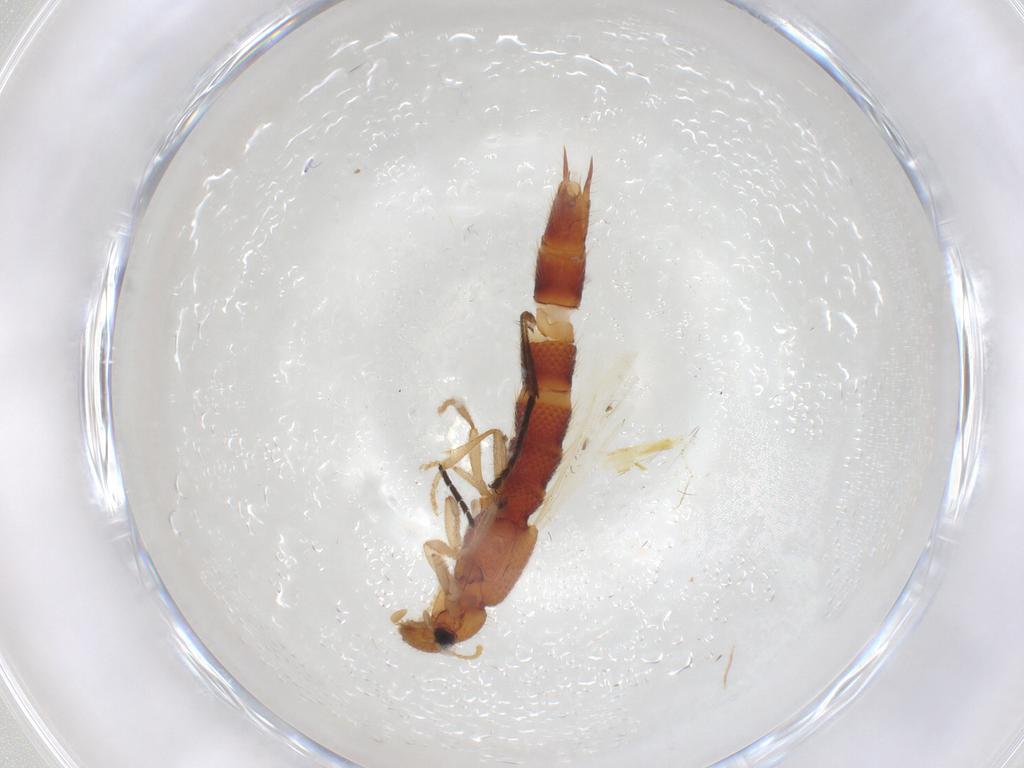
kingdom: Animalia
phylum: Arthropoda
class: Insecta
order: Coleoptera
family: Staphylinidae
